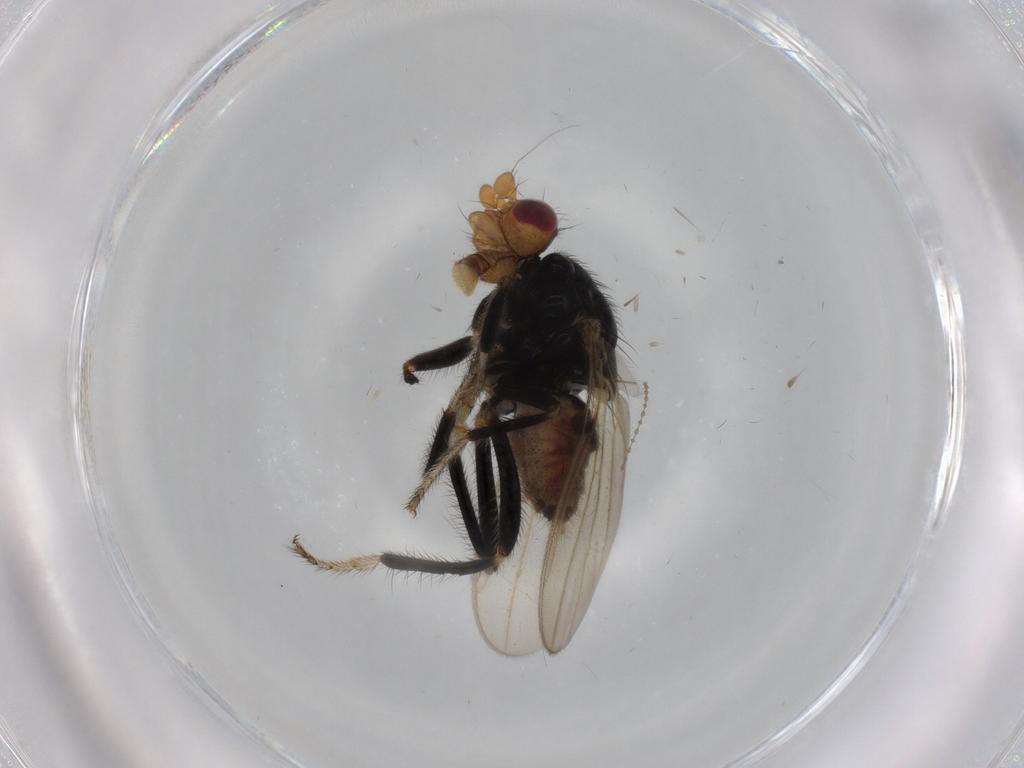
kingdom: Animalia
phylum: Arthropoda
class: Insecta
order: Diptera
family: Sphaeroceridae
